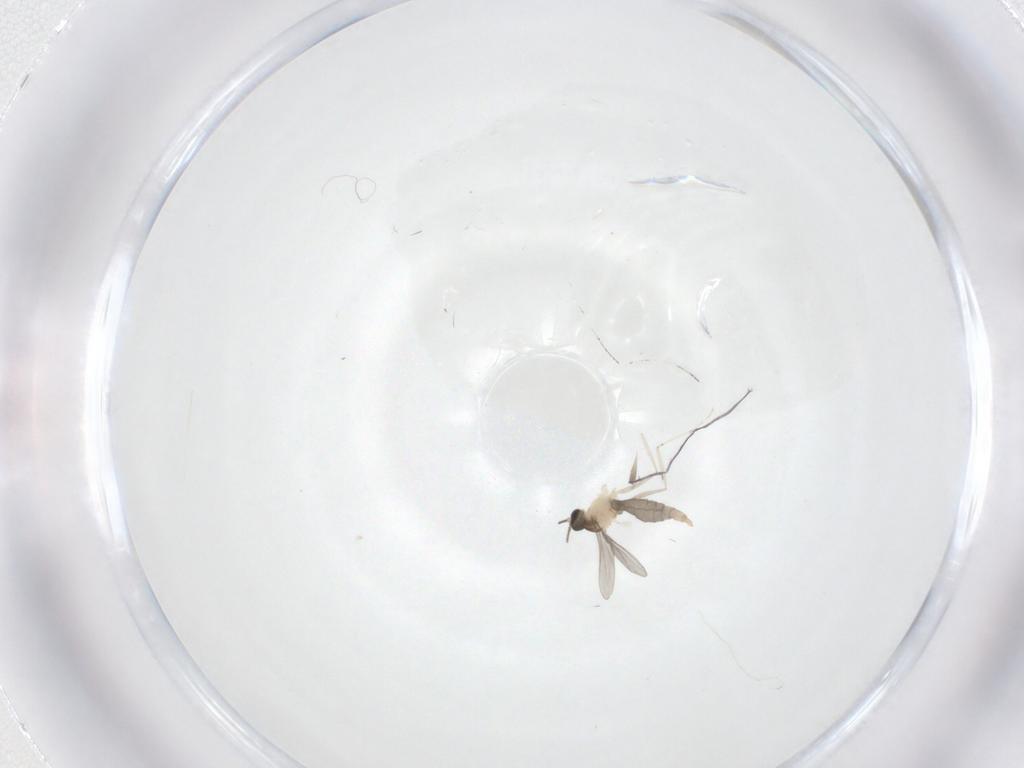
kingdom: Animalia
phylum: Arthropoda
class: Insecta
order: Diptera
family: Cecidomyiidae
